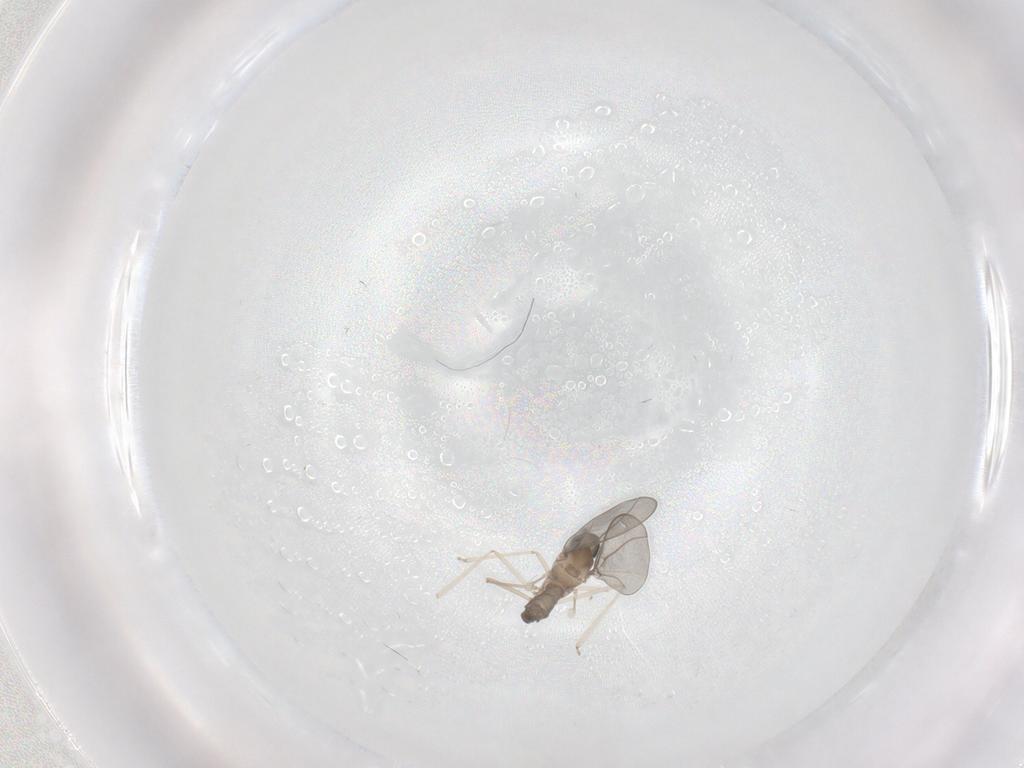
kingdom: Animalia
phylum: Arthropoda
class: Insecta
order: Diptera
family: Cecidomyiidae
